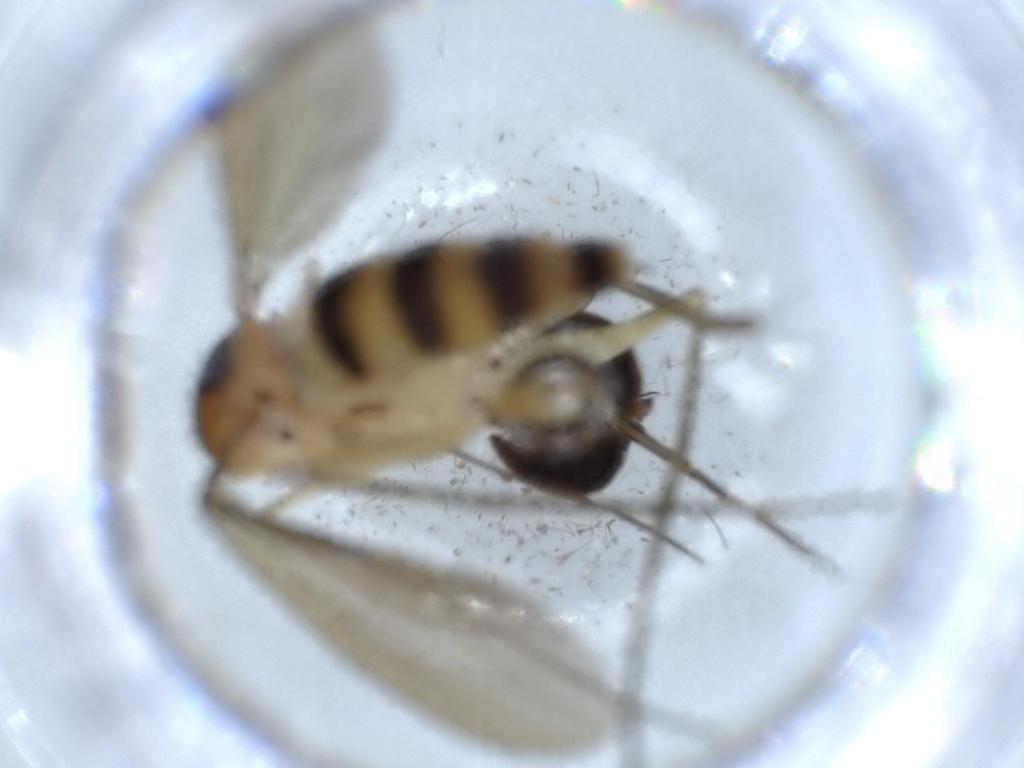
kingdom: Animalia
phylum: Arthropoda
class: Insecta
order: Diptera
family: Dolichopodidae
